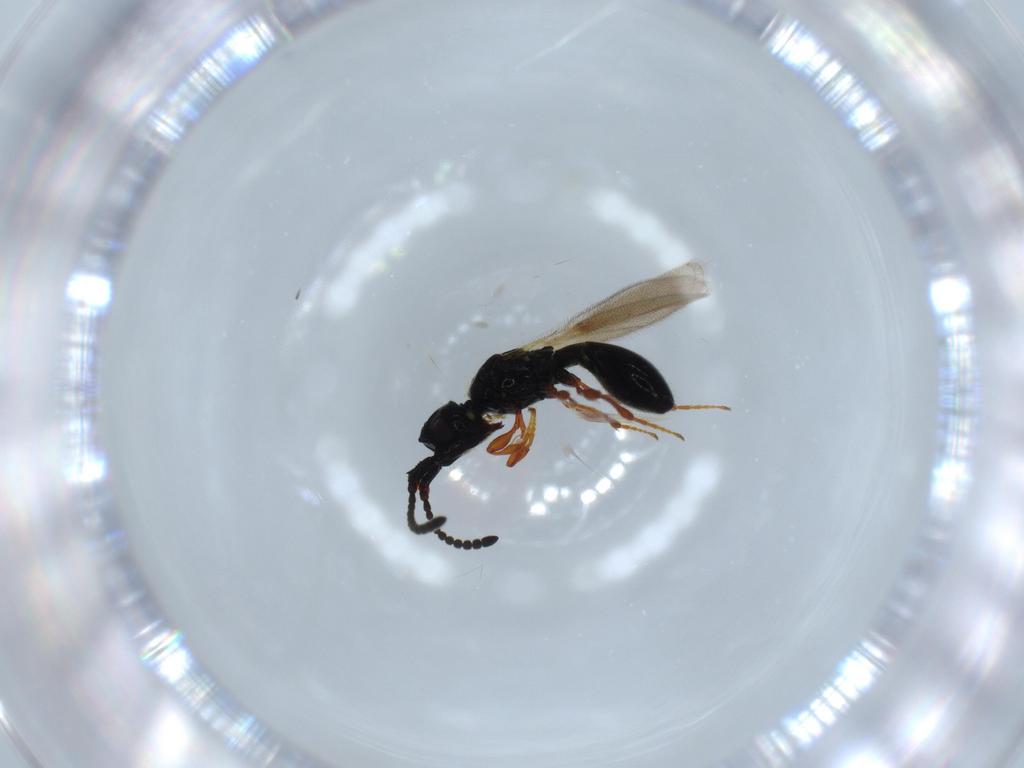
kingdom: Animalia
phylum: Arthropoda
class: Insecta
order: Hymenoptera
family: Diapriidae
